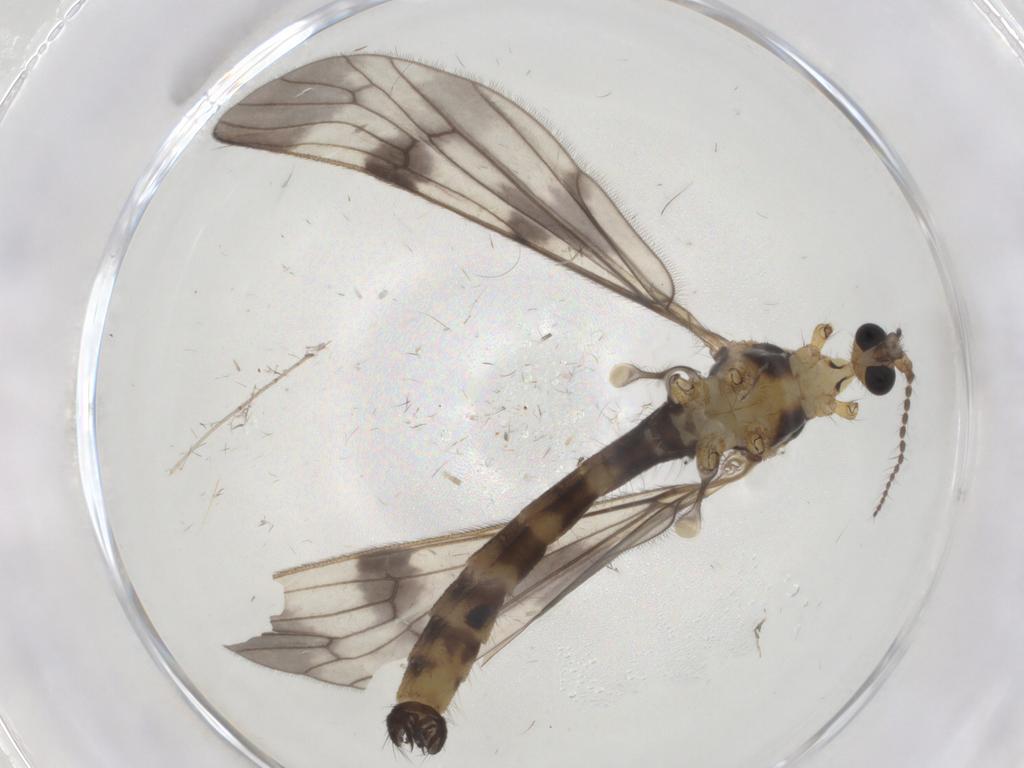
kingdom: Animalia
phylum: Arthropoda
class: Insecta
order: Diptera
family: Limoniidae
